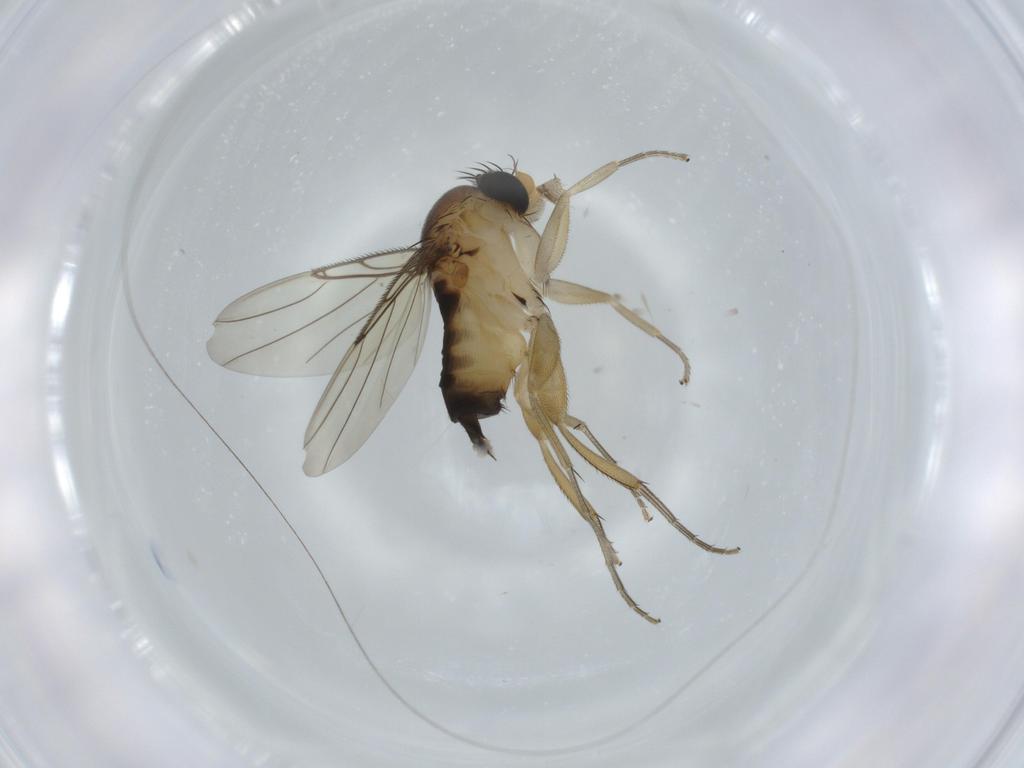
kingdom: Animalia
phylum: Arthropoda
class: Insecta
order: Diptera
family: Phoridae
